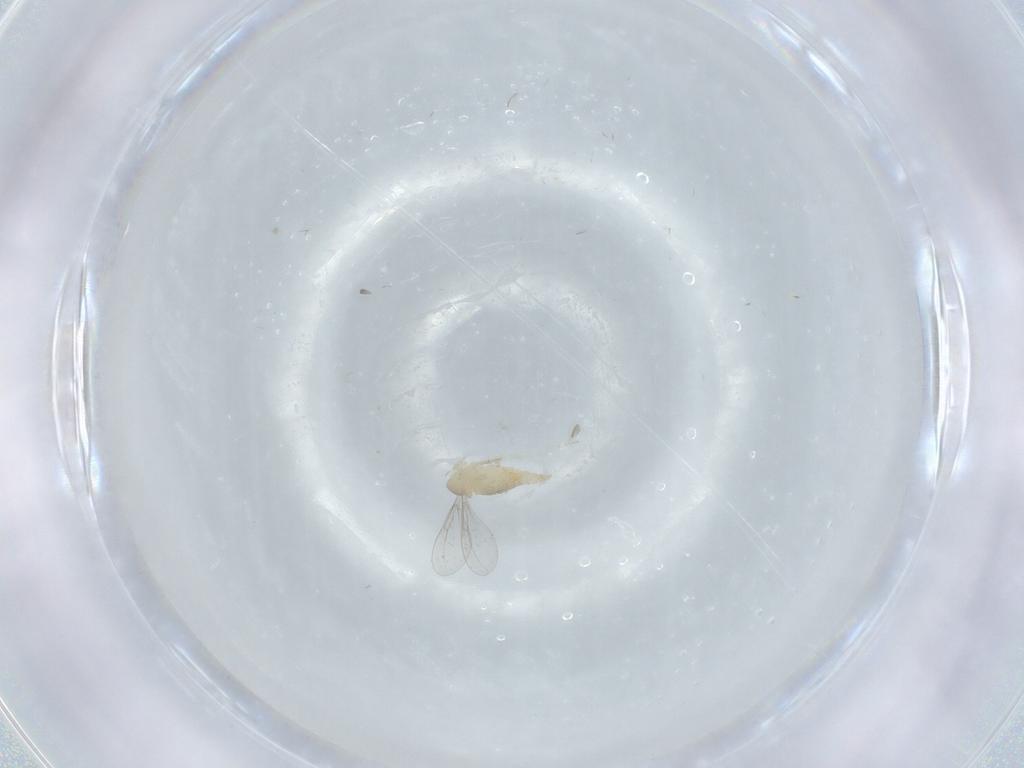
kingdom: Animalia
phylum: Arthropoda
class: Insecta
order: Diptera
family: Cecidomyiidae
